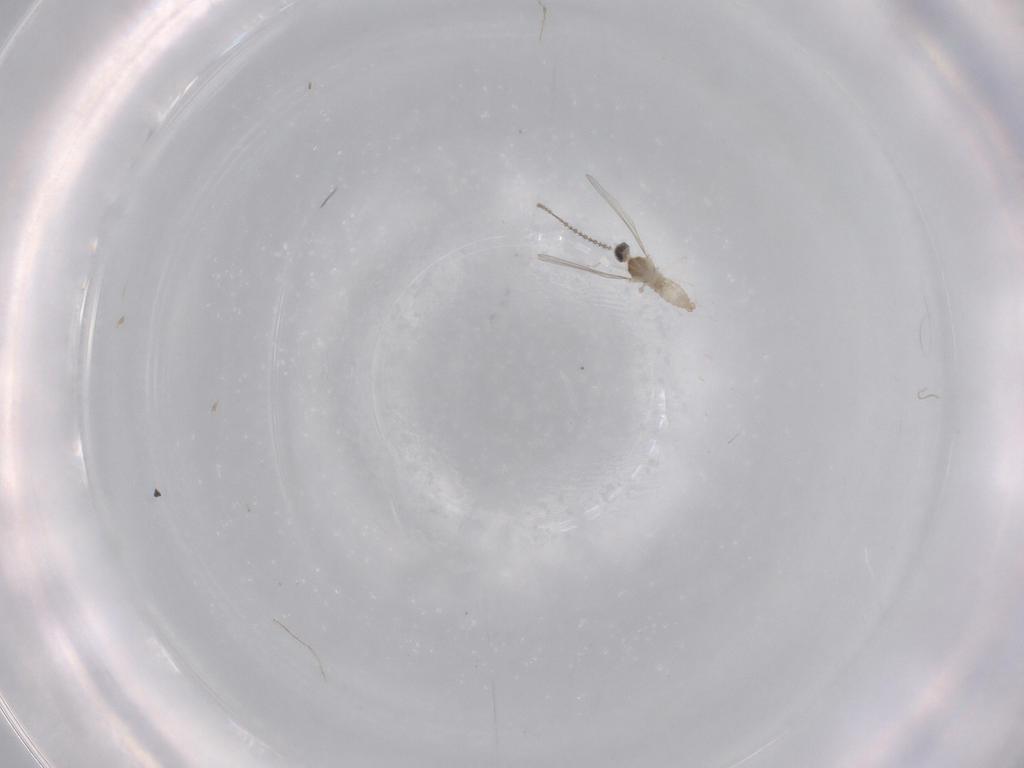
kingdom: Animalia
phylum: Arthropoda
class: Insecta
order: Diptera
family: Cecidomyiidae
